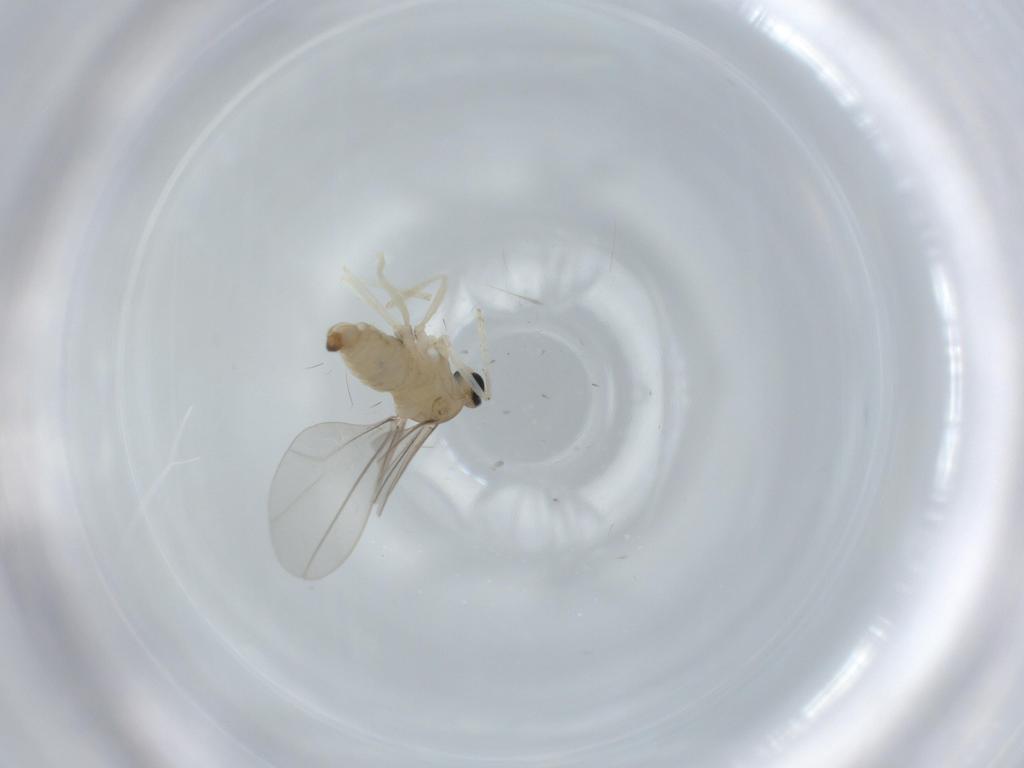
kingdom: Animalia
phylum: Arthropoda
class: Insecta
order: Diptera
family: Cecidomyiidae
